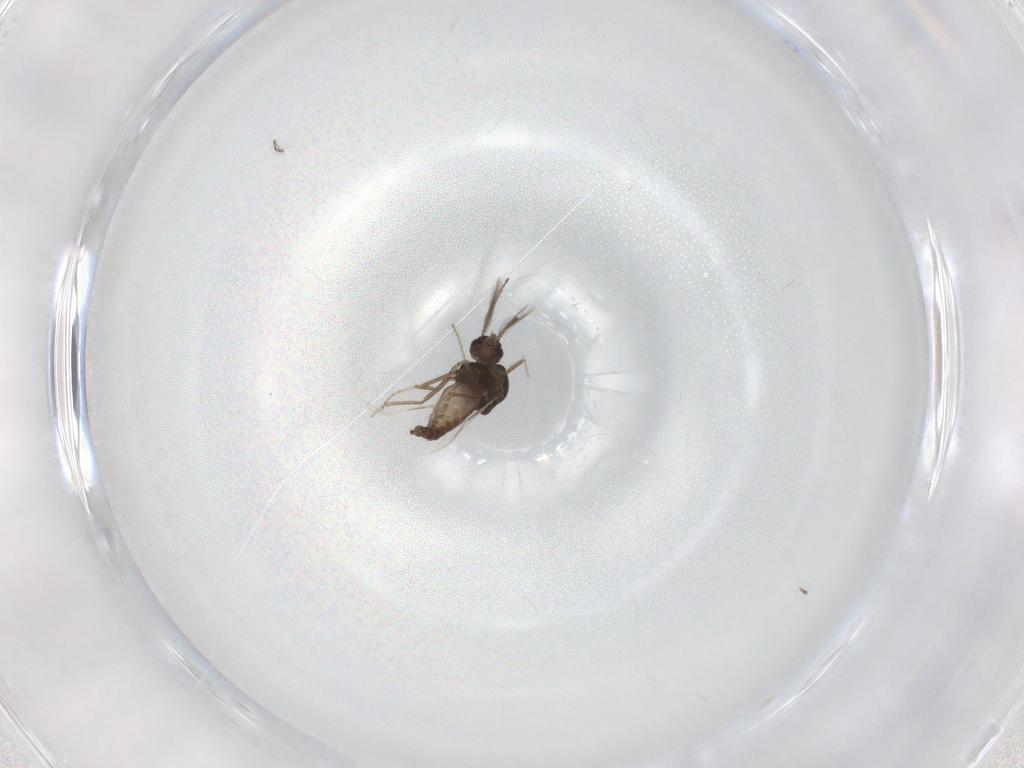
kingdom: Animalia
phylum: Arthropoda
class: Insecta
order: Diptera
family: Ceratopogonidae
